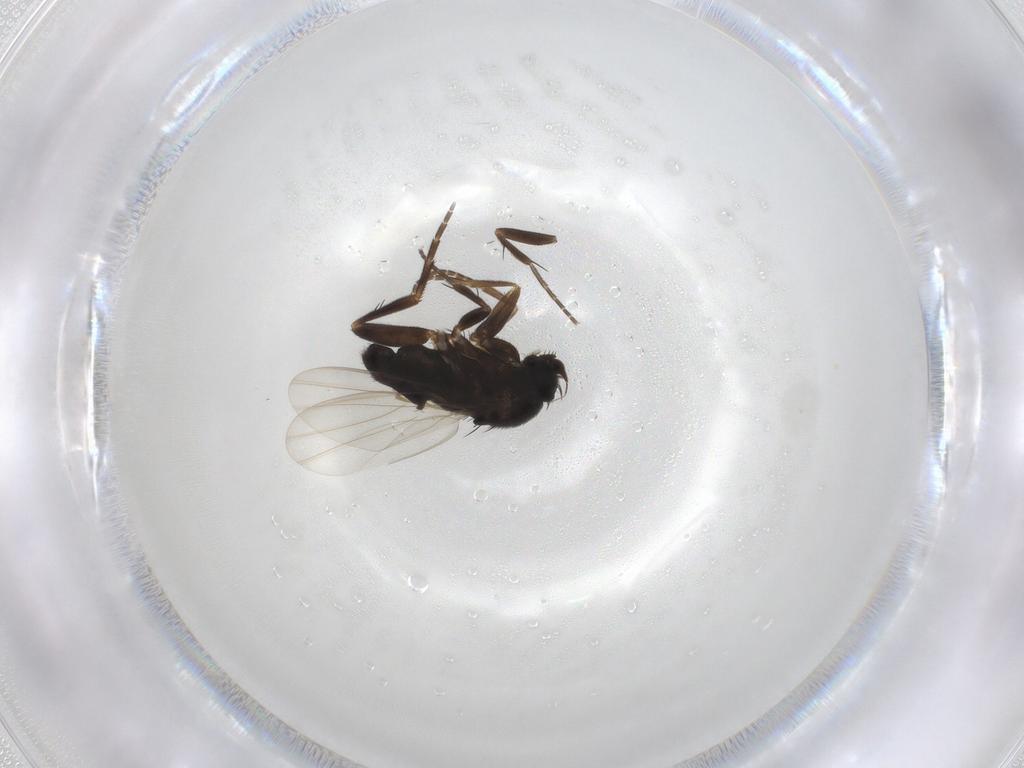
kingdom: Animalia
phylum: Arthropoda
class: Insecta
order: Diptera
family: Phoridae
